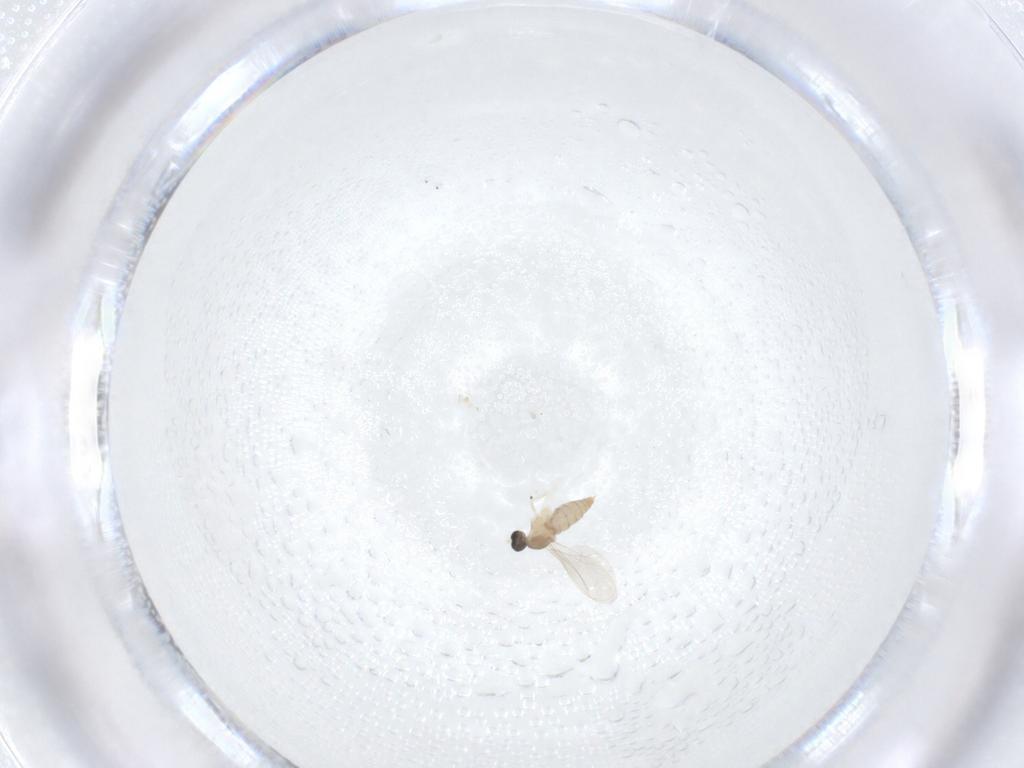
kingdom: Animalia
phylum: Arthropoda
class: Insecta
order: Diptera
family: Cecidomyiidae
